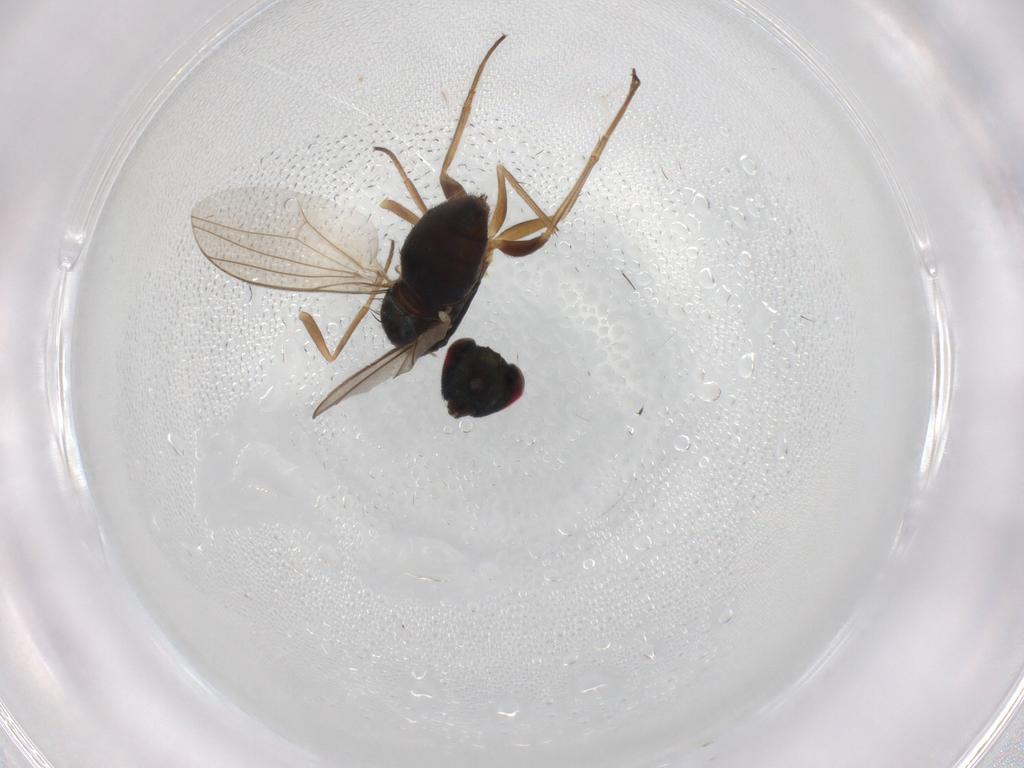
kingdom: Animalia
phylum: Arthropoda
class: Insecta
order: Diptera
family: Dolichopodidae
